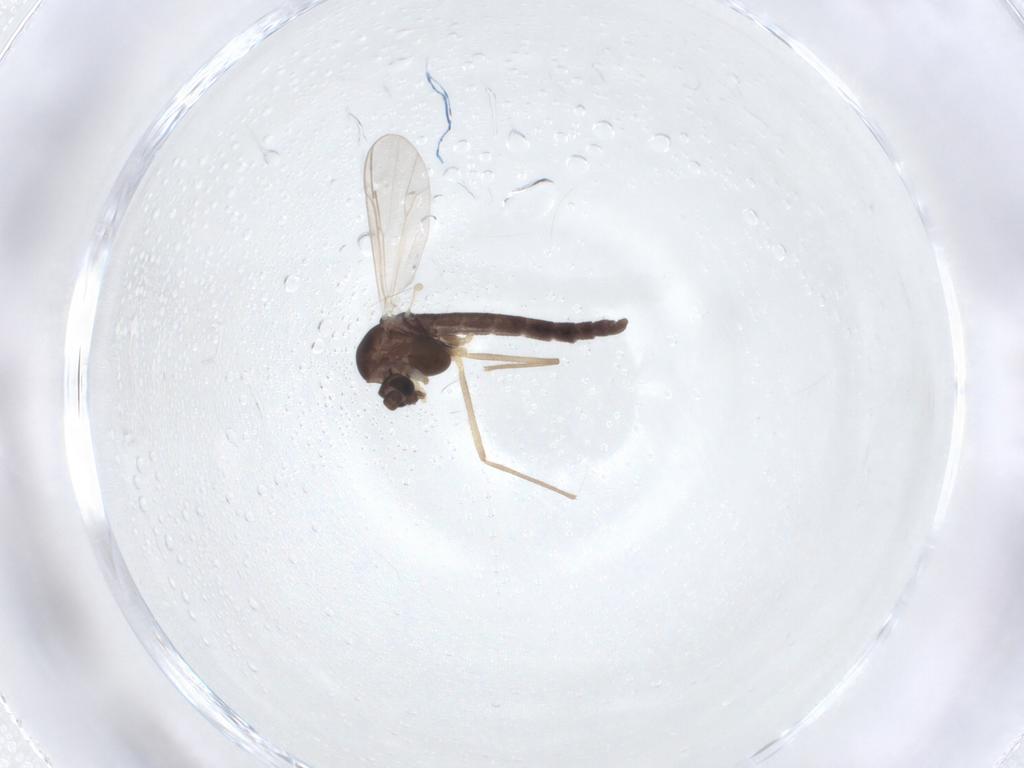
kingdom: Animalia
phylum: Arthropoda
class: Insecta
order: Diptera
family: Chironomidae
